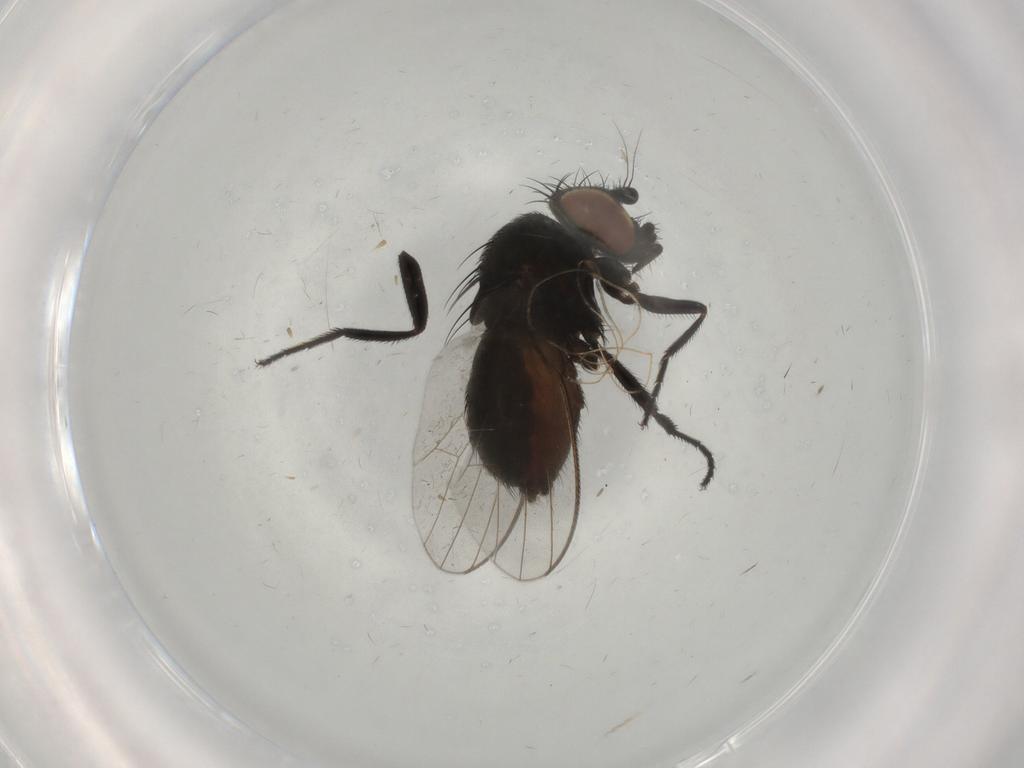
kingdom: Animalia
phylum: Arthropoda
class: Insecta
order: Diptera
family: Milichiidae
